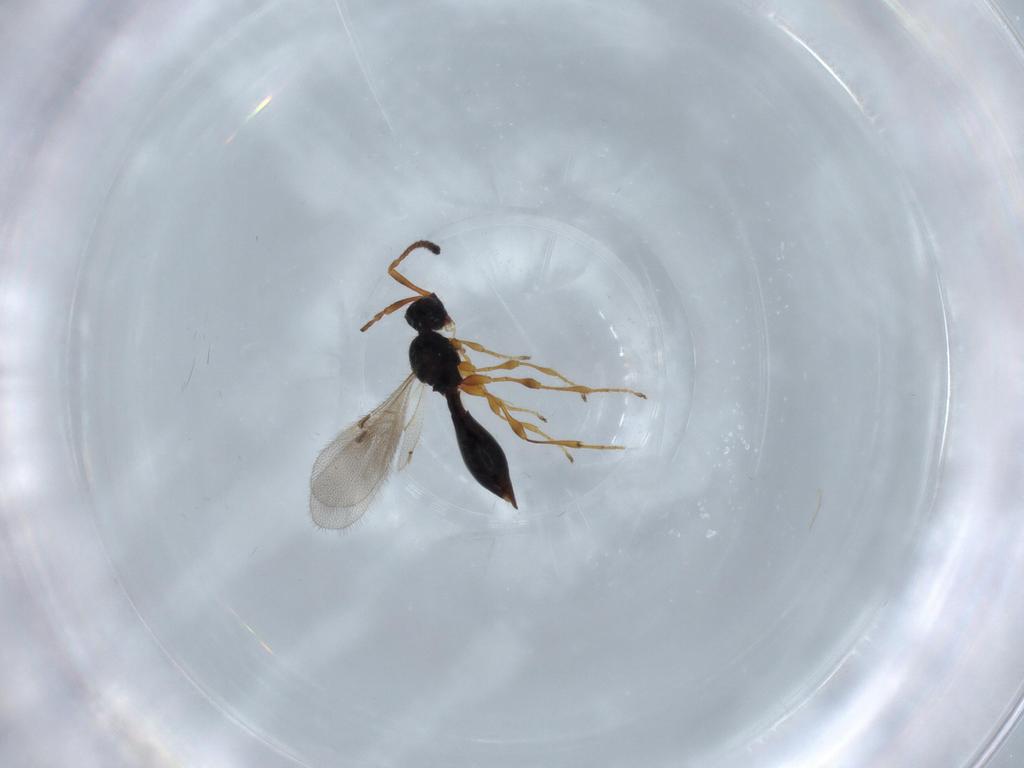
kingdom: Animalia
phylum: Arthropoda
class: Insecta
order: Hymenoptera
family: Diapriidae
